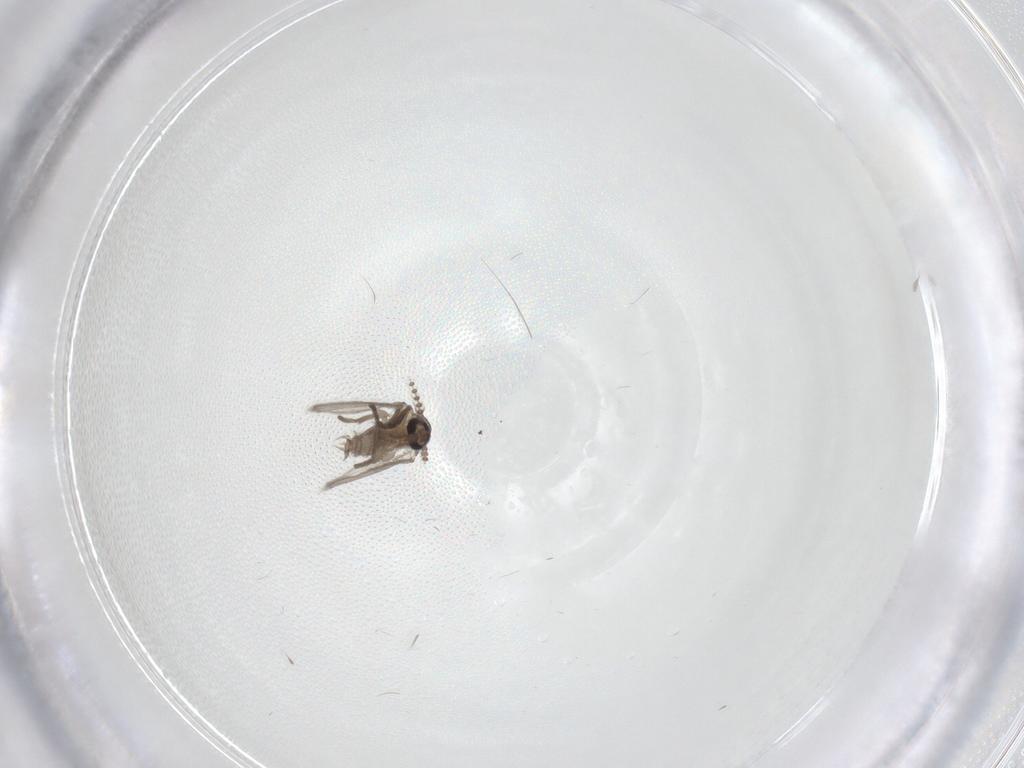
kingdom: Animalia
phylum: Arthropoda
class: Insecta
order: Diptera
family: Psychodidae
